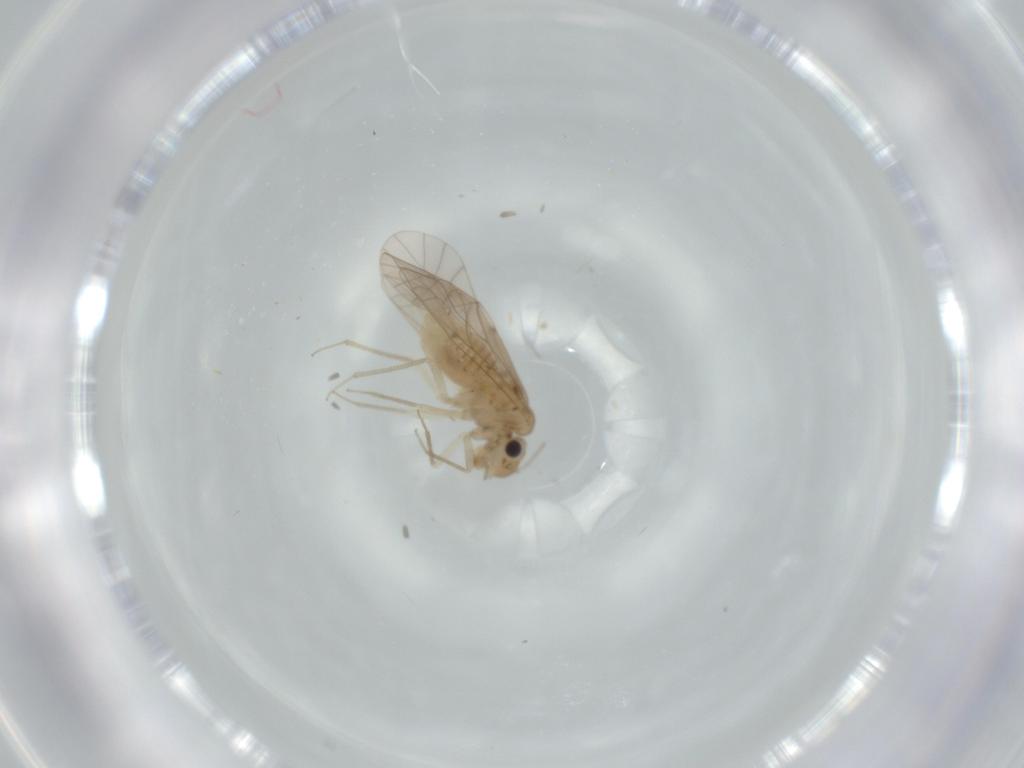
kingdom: Animalia
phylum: Arthropoda
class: Insecta
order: Psocodea
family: Lachesillidae
